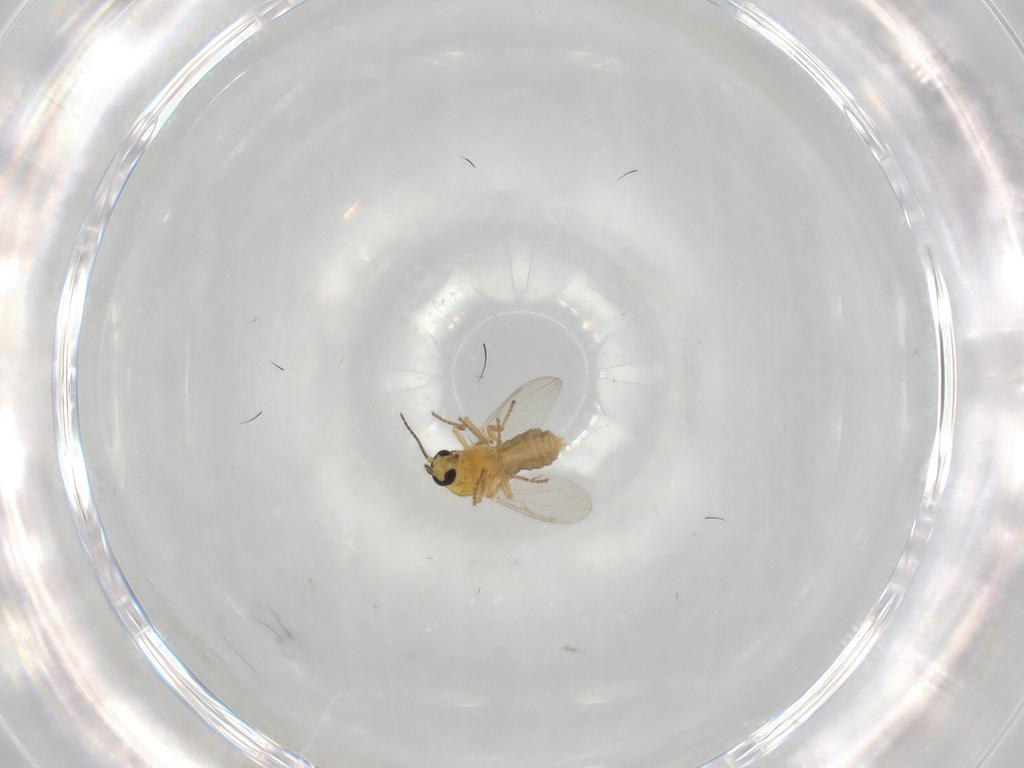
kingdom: Animalia
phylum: Arthropoda
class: Insecta
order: Diptera
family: Ceratopogonidae
